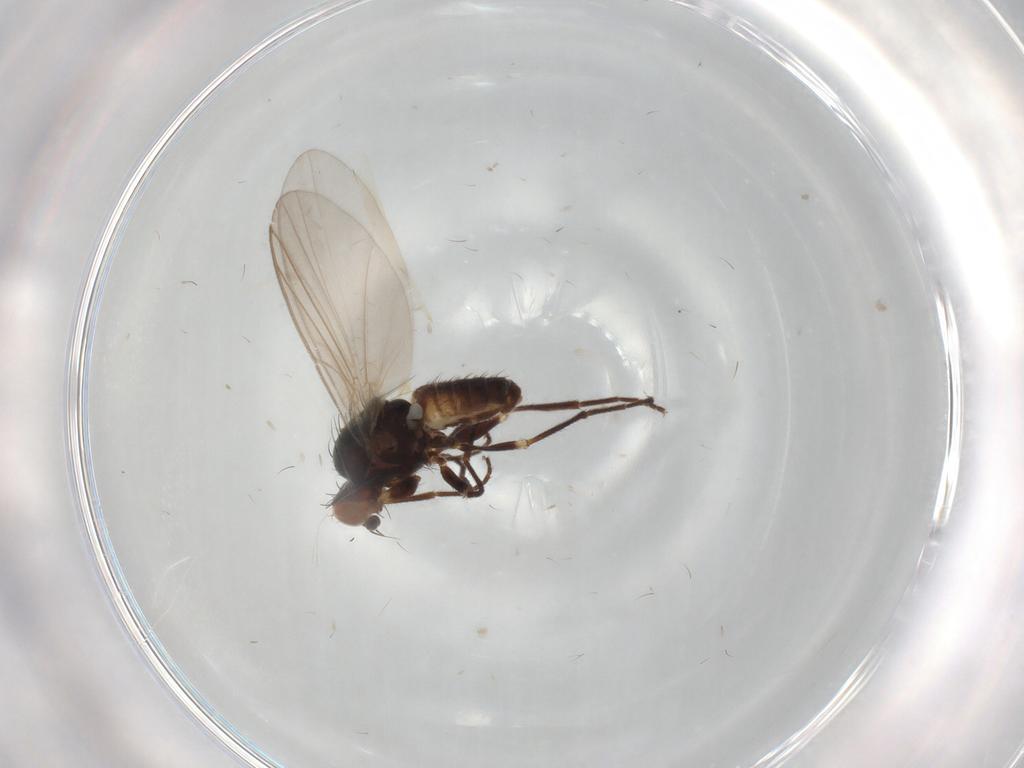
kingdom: Animalia
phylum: Arthropoda
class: Insecta
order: Diptera
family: Agromyzidae
